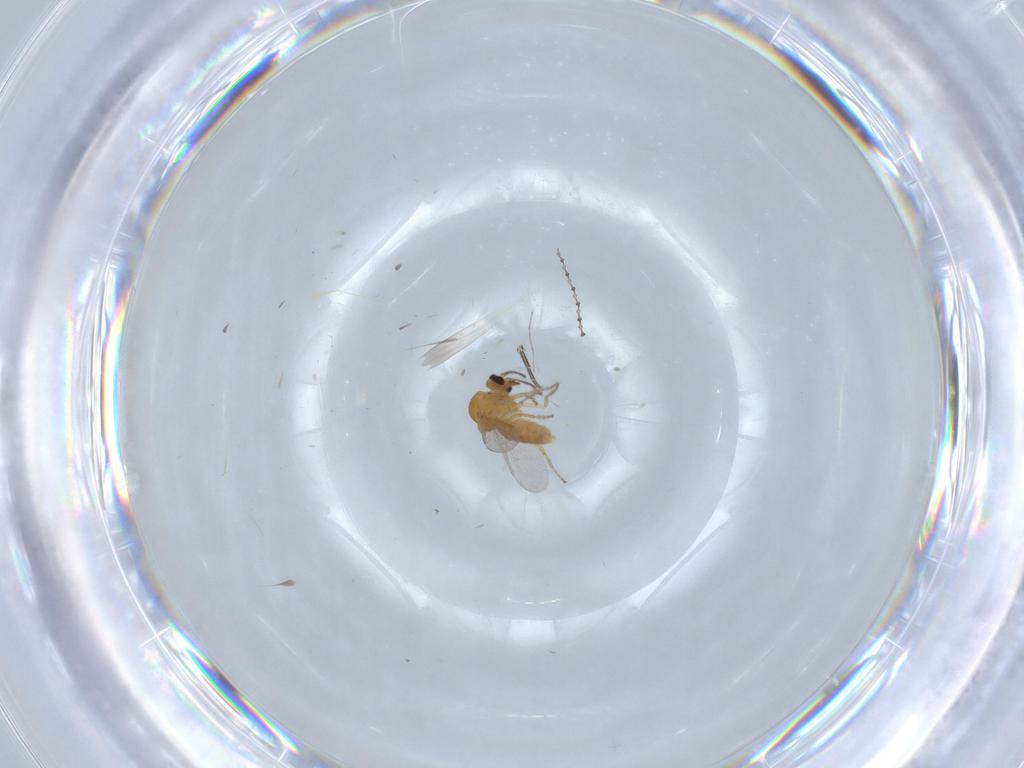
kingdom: Animalia
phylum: Arthropoda
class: Insecta
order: Diptera
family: Ceratopogonidae
